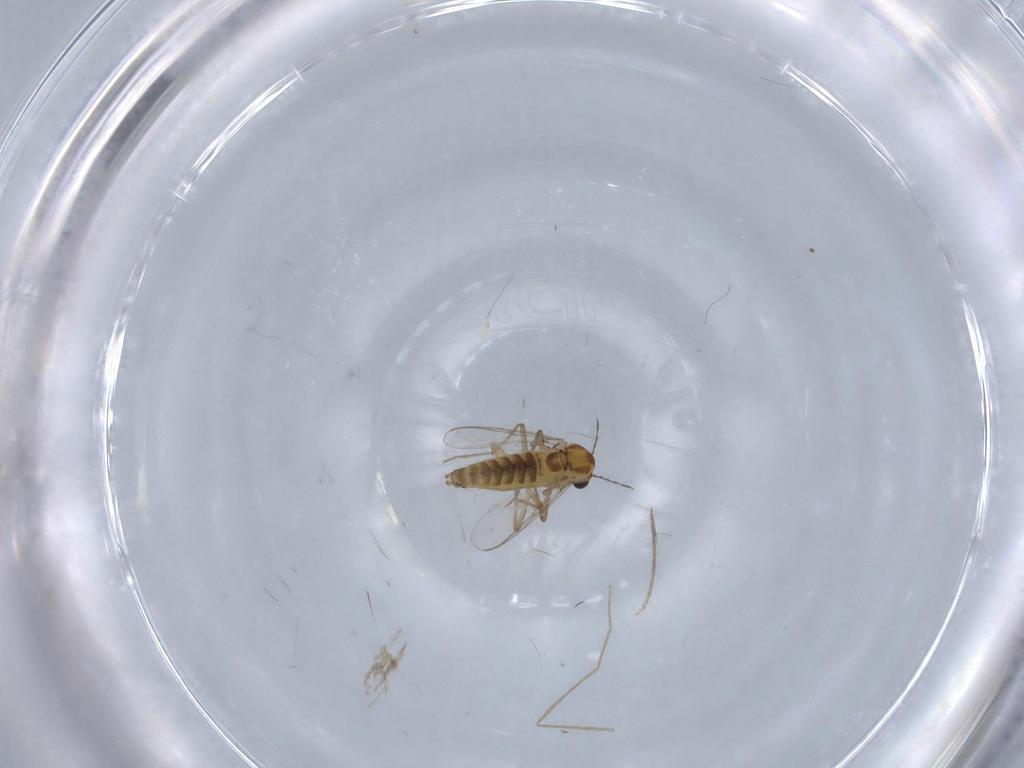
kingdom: Animalia
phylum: Arthropoda
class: Insecta
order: Diptera
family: Chironomidae
